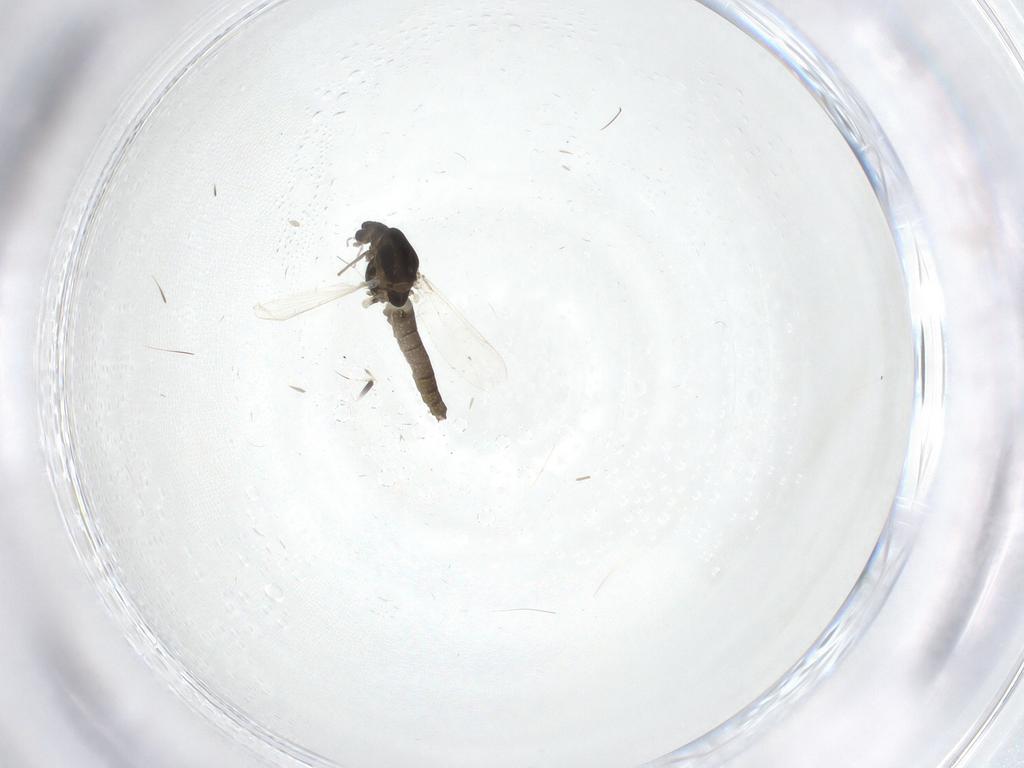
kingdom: Animalia
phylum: Arthropoda
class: Insecta
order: Diptera
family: Chironomidae
